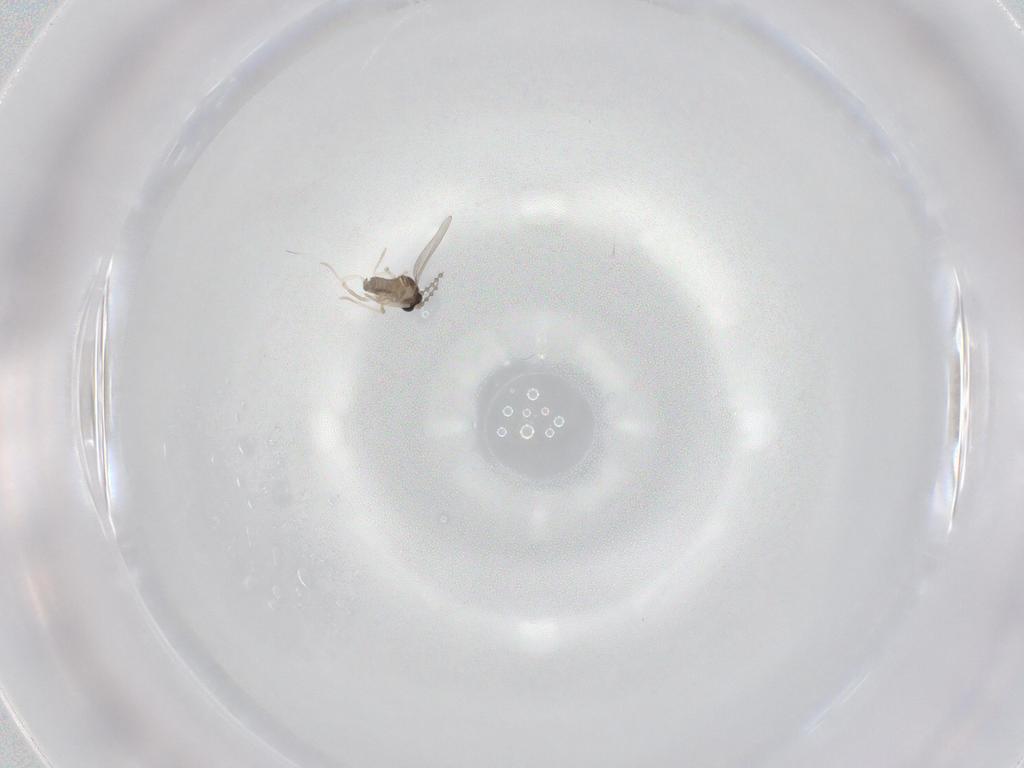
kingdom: Animalia
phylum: Arthropoda
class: Insecta
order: Diptera
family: Cecidomyiidae
